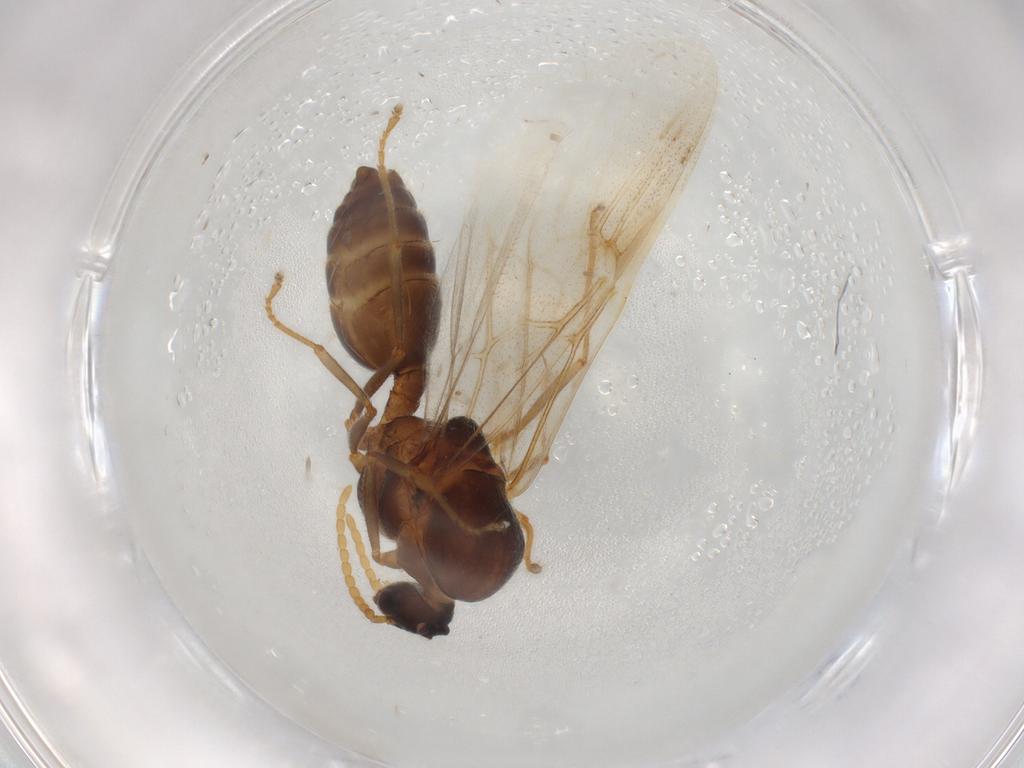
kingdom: Animalia
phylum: Arthropoda
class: Insecta
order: Hymenoptera
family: Formicidae
